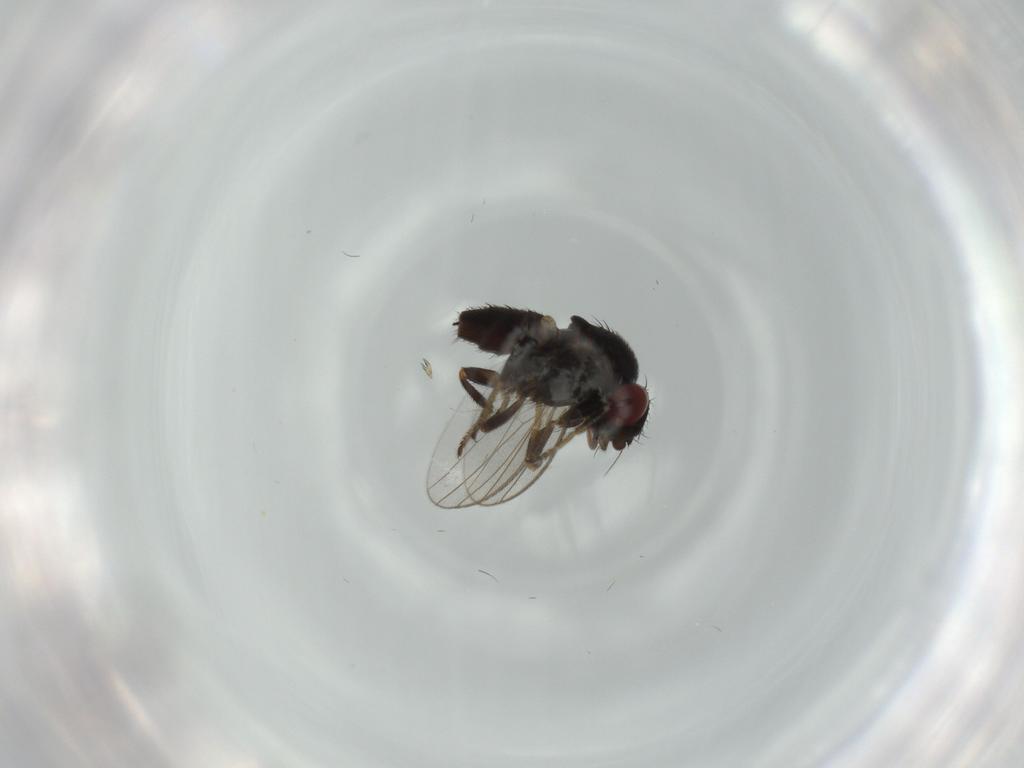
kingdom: Animalia
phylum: Arthropoda
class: Insecta
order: Diptera
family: Milichiidae
